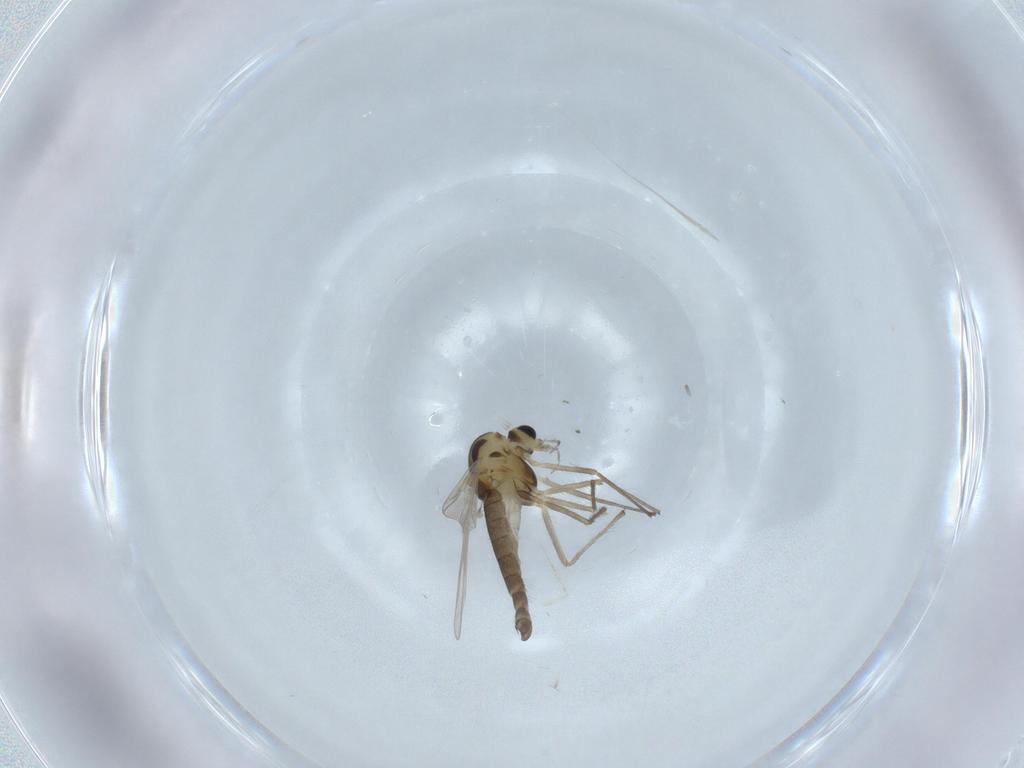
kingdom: Animalia
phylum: Arthropoda
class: Insecta
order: Diptera
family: Chironomidae
